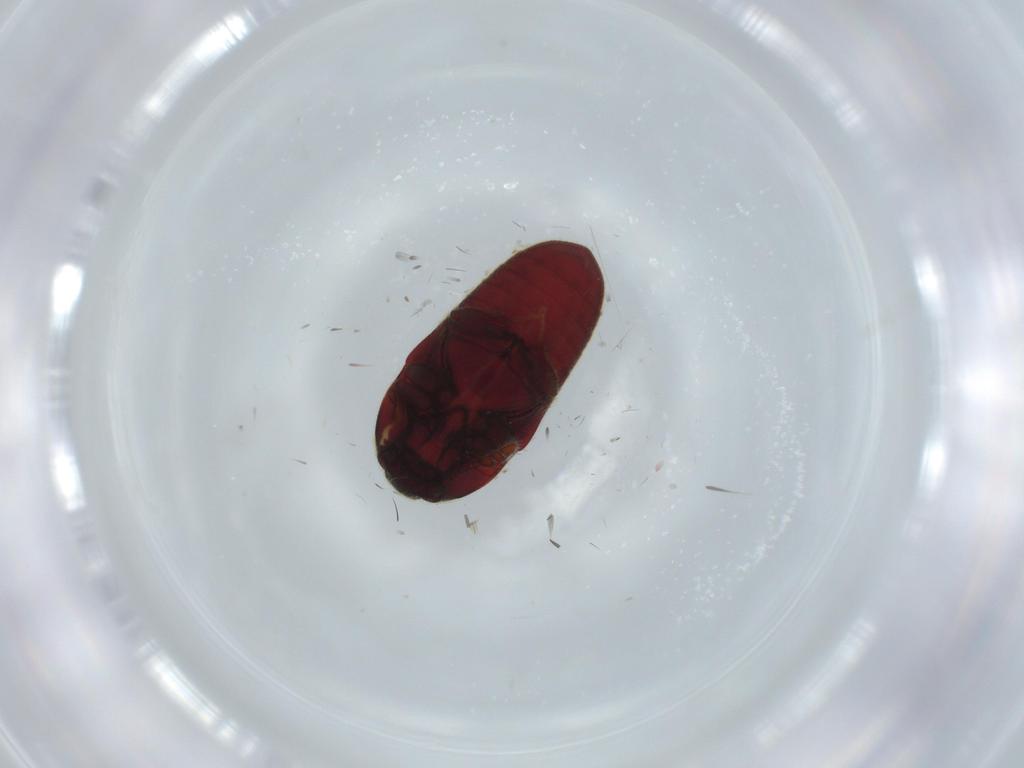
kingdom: Animalia
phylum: Arthropoda
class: Insecta
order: Coleoptera
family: Throscidae
